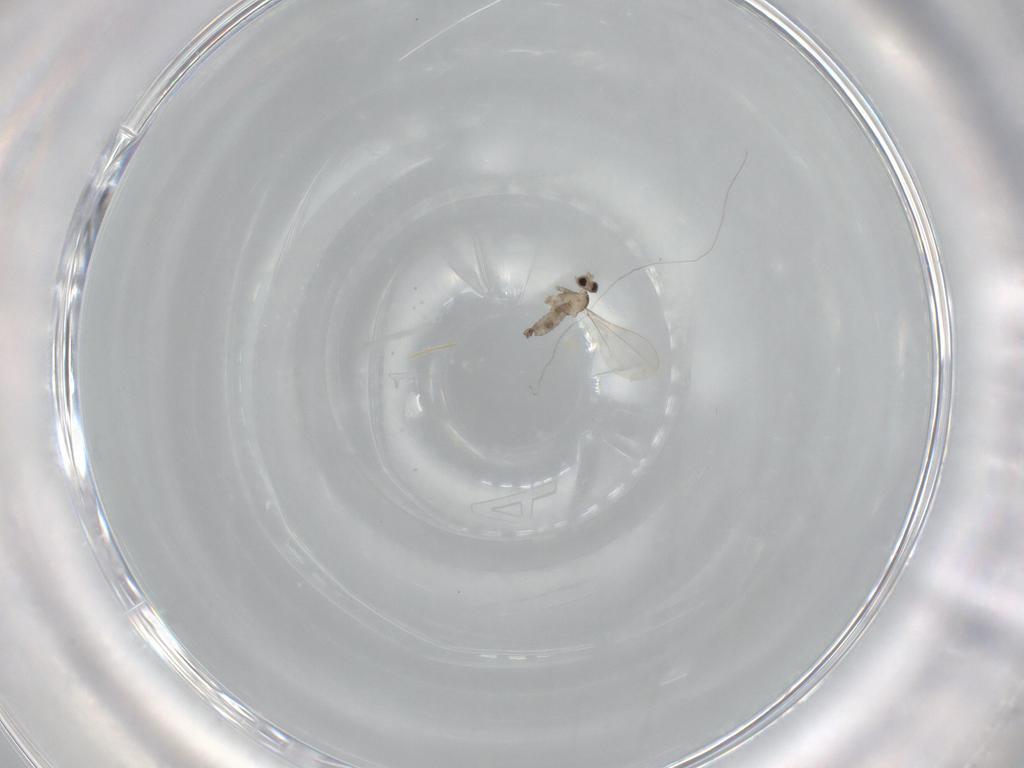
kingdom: Animalia
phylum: Arthropoda
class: Insecta
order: Diptera
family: Cecidomyiidae
